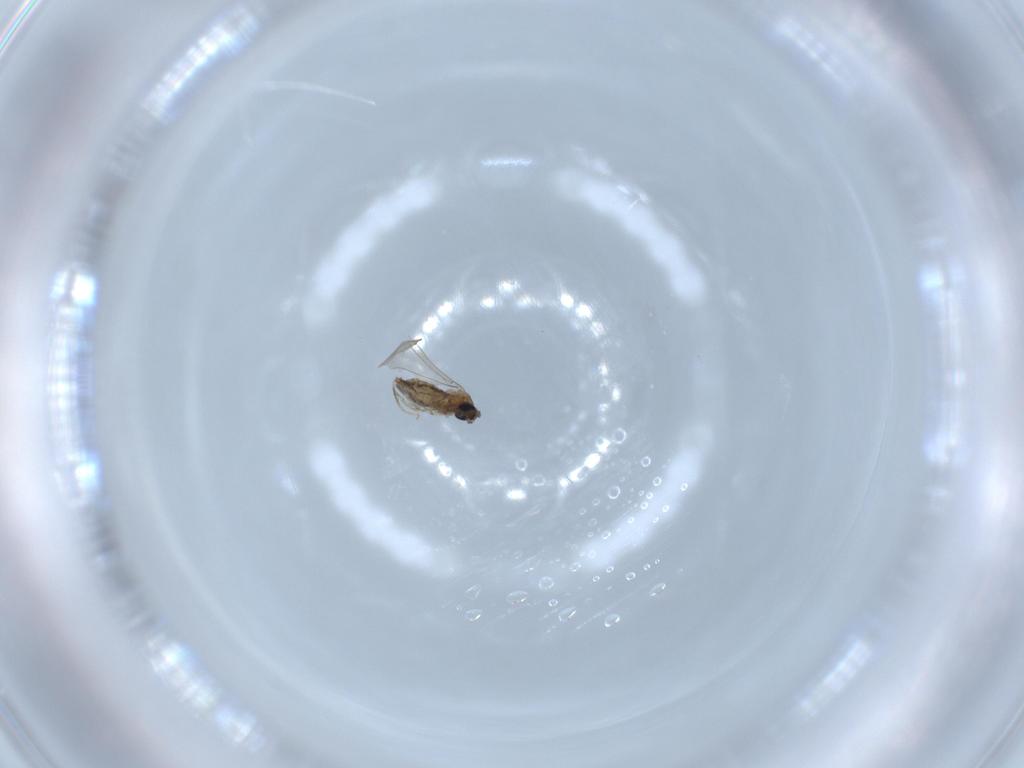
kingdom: Animalia
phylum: Arthropoda
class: Insecta
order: Diptera
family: Cecidomyiidae
